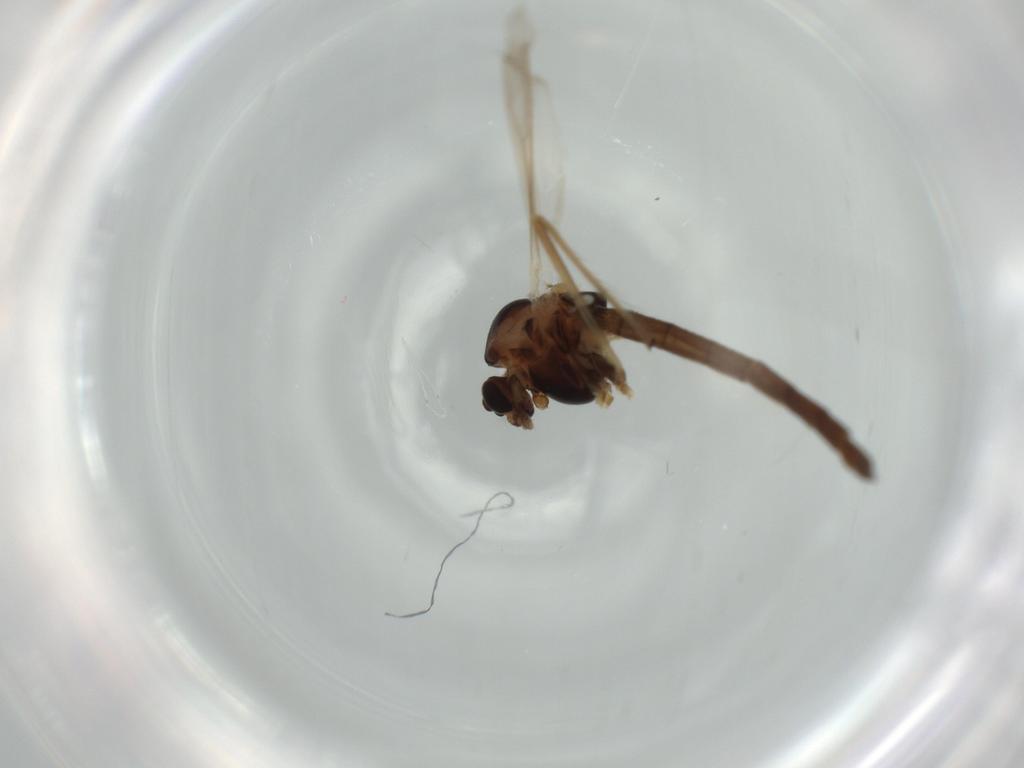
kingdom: Animalia
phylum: Arthropoda
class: Insecta
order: Diptera
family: Chironomidae
